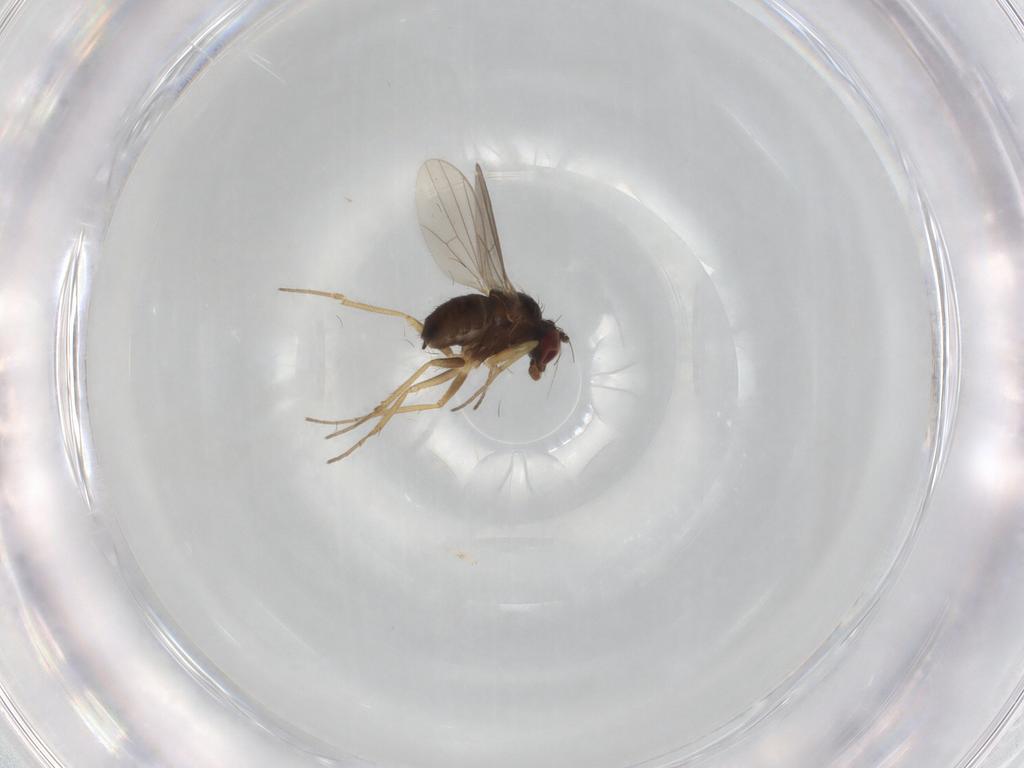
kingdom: Animalia
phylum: Arthropoda
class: Insecta
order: Diptera
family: Dolichopodidae
